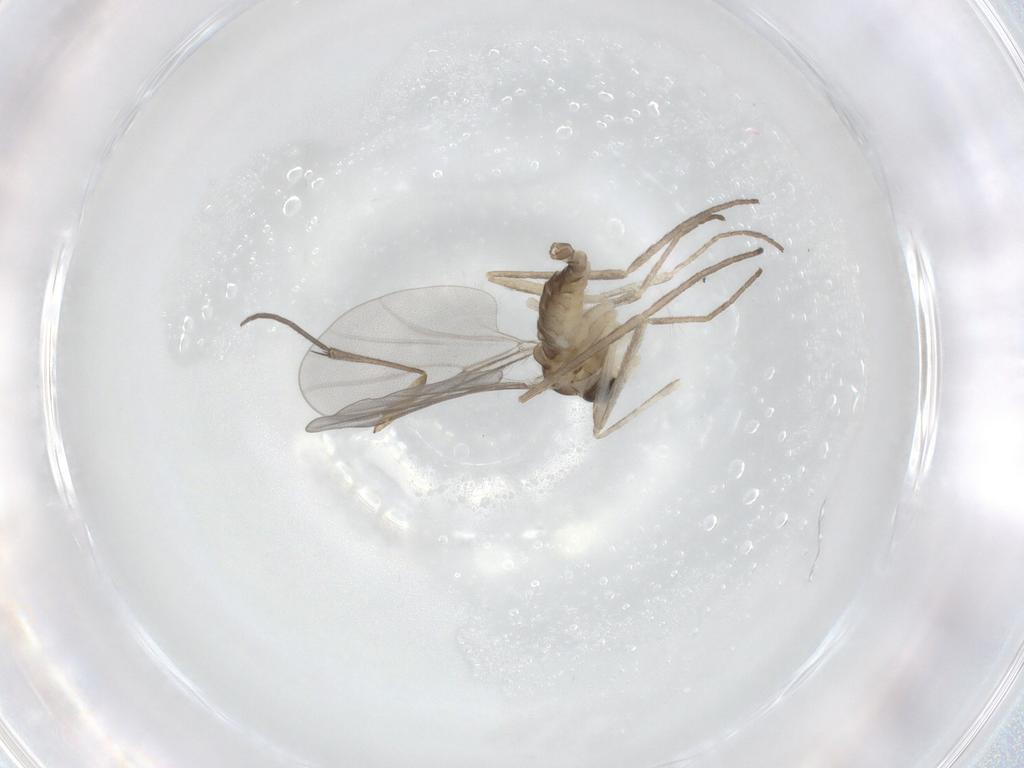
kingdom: Animalia
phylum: Arthropoda
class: Insecta
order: Diptera
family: Cecidomyiidae
